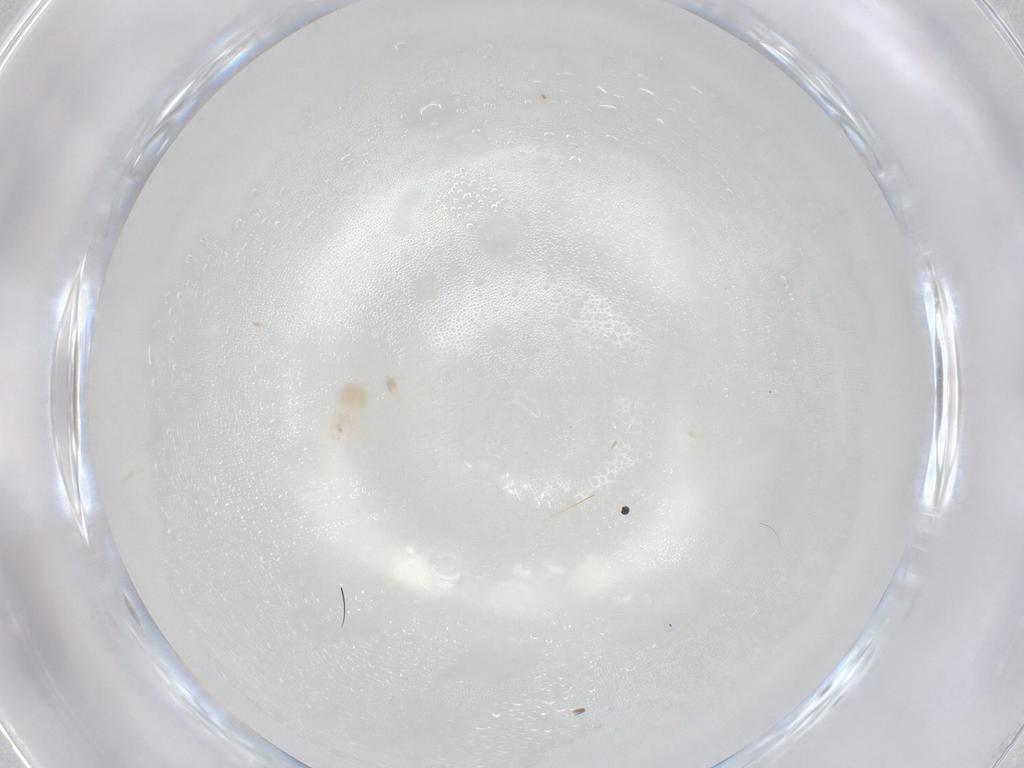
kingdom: Animalia
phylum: Arthropoda
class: Arachnida
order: Trombidiformes
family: Anystidae
